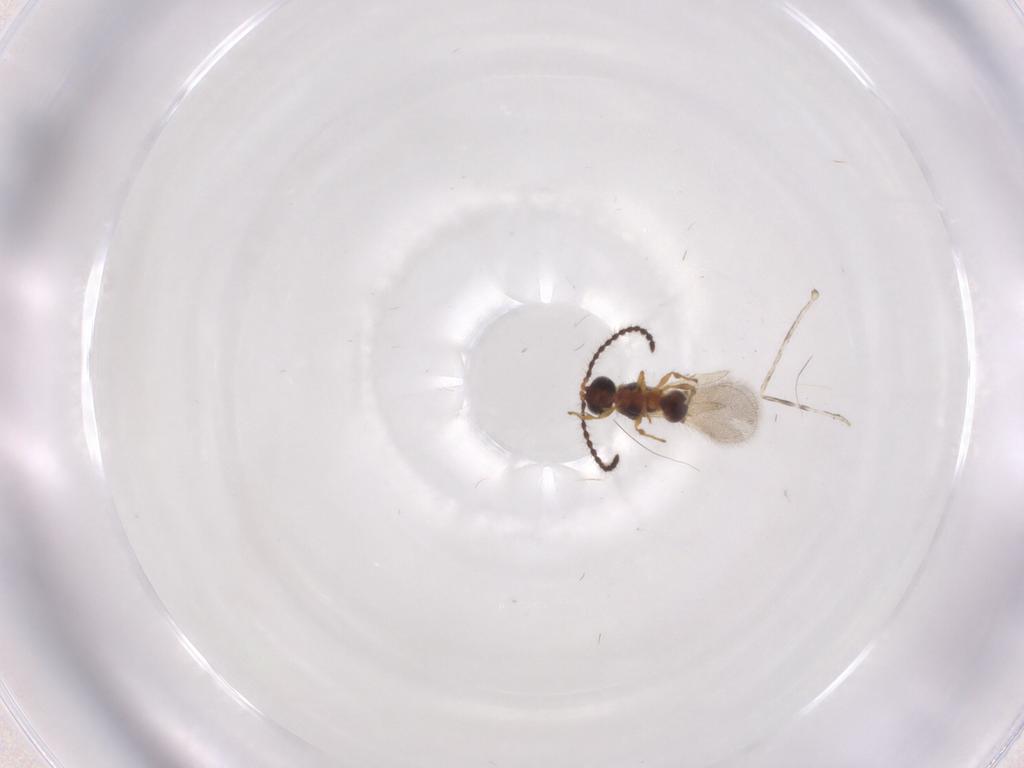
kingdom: Animalia
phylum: Arthropoda
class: Insecta
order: Hymenoptera
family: Diapriidae
